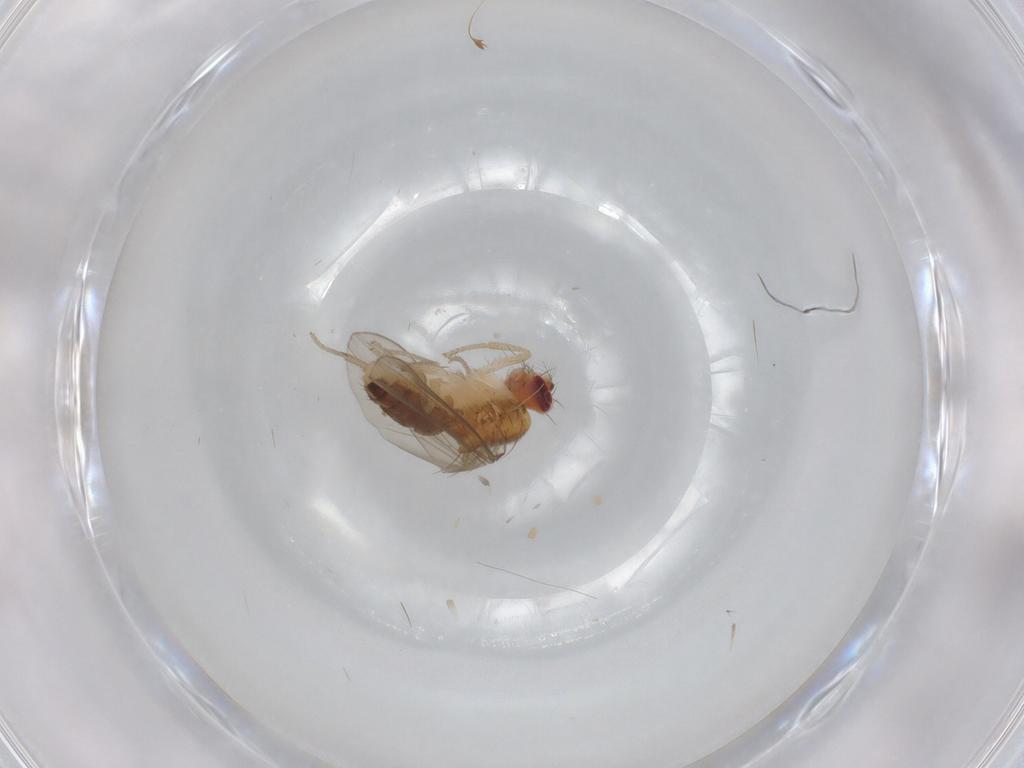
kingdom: Animalia
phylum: Arthropoda
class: Insecta
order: Diptera
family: Drosophilidae
